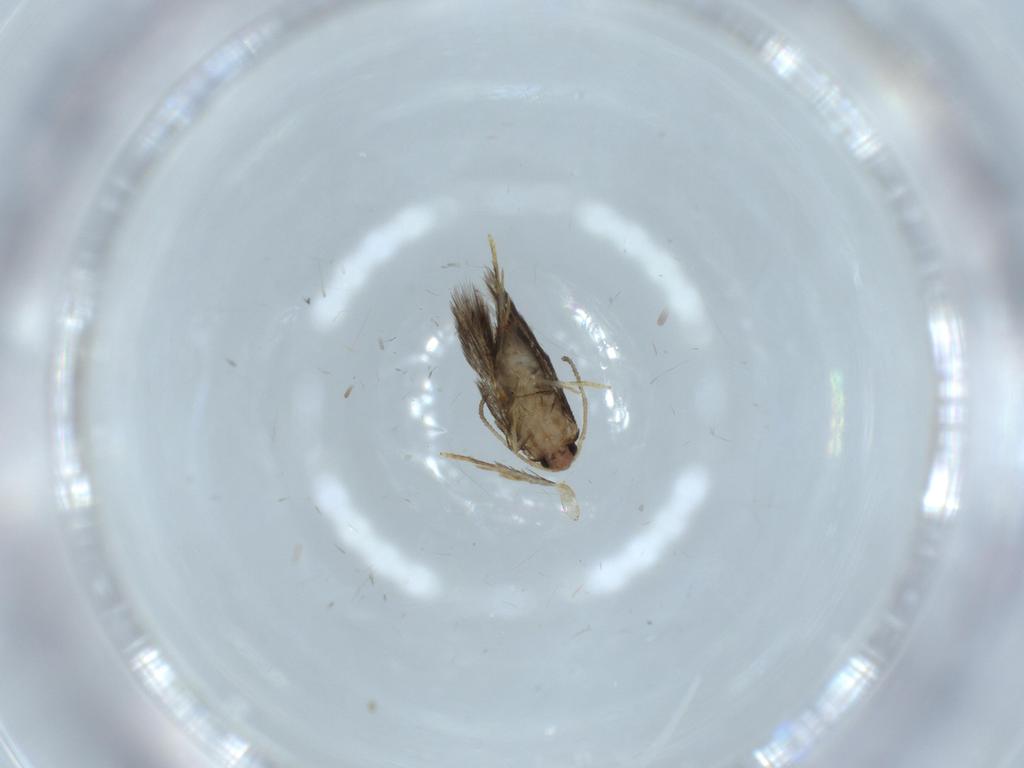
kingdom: Animalia
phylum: Arthropoda
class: Insecta
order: Lepidoptera
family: Nepticulidae
